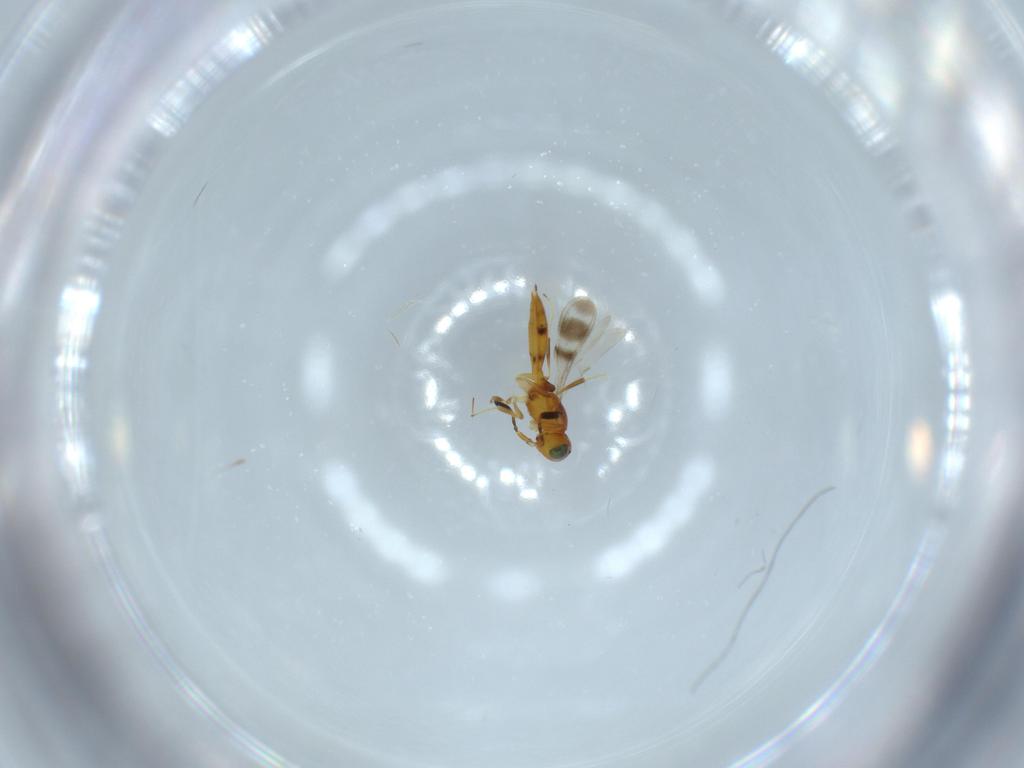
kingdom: Animalia
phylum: Arthropoda
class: Insecta
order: Hymenoptera
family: Scelionidae
